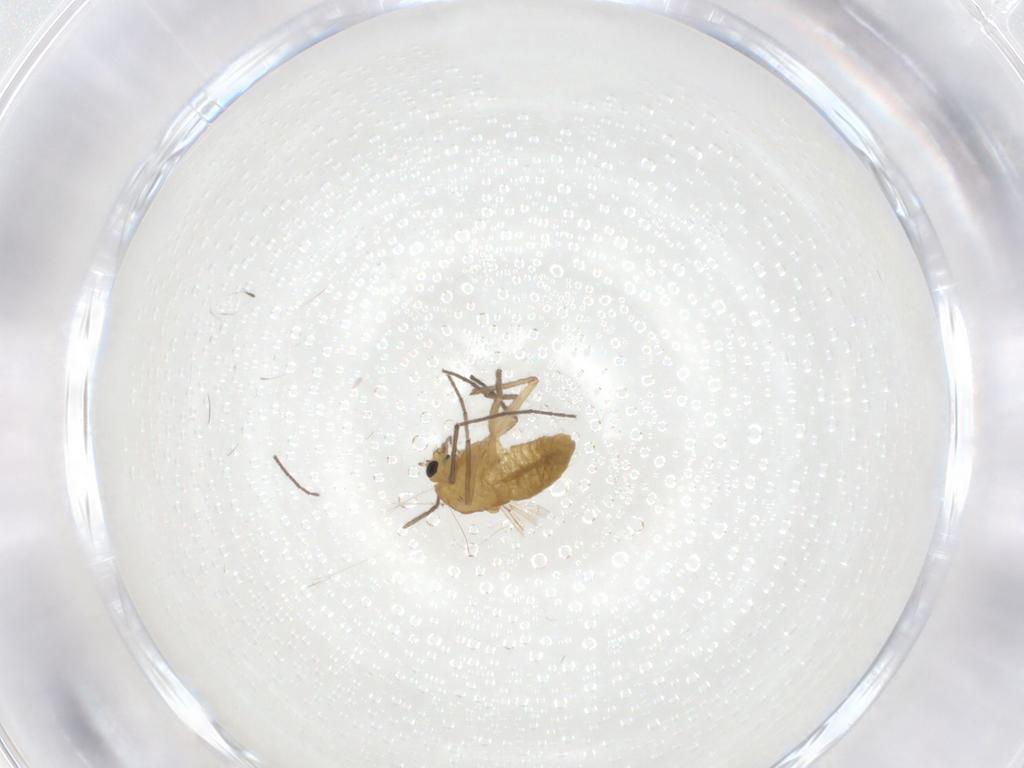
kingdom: Animalia
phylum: Arthropoda
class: Insecta
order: Diptera
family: Chironomidae
